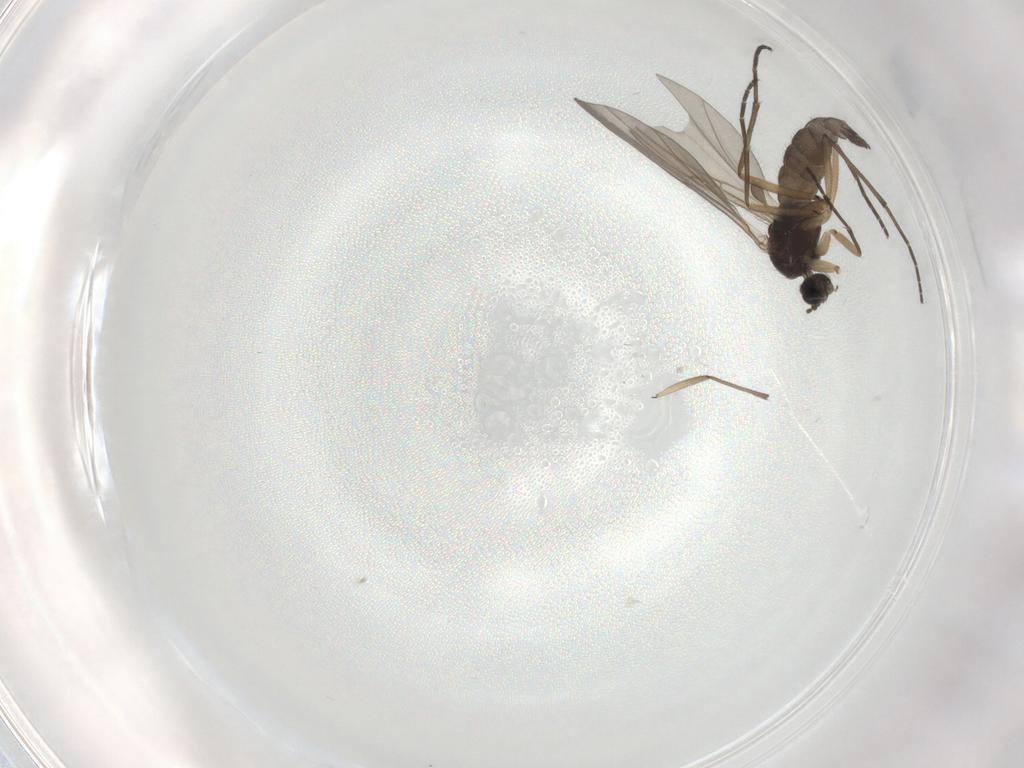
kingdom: Animalia
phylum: Arthropoda
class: Insecta
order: Diptera
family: Sciaridae
